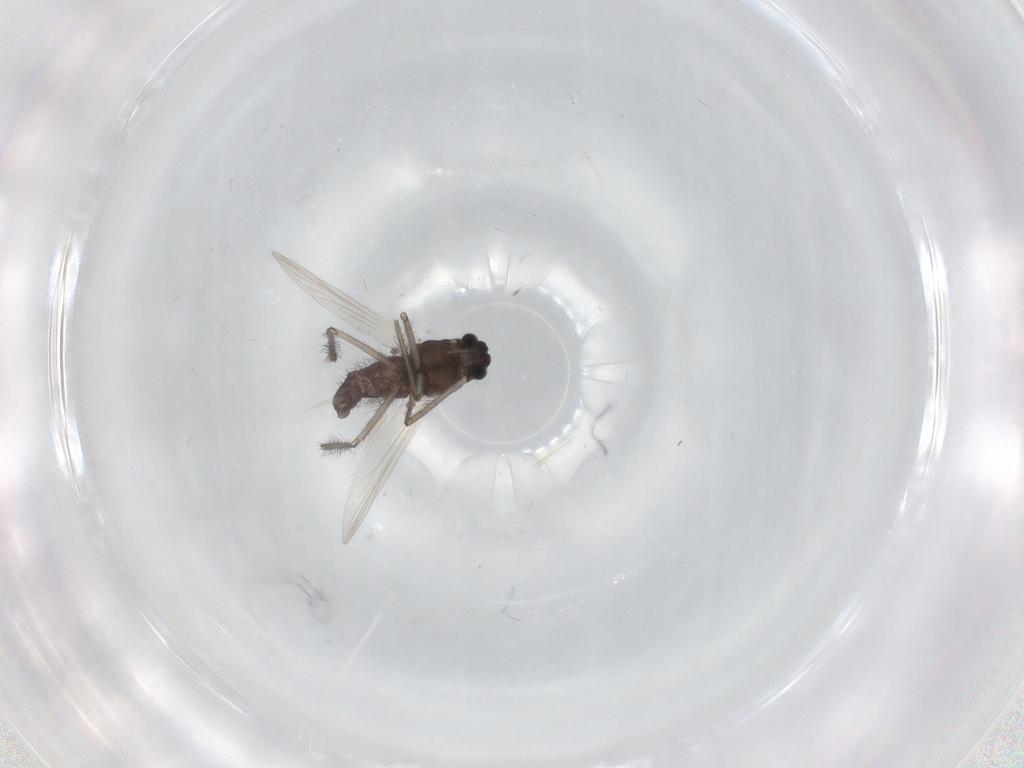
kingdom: Animalia
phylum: Arthropoda
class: Insecta
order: Diptera
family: Chironomidae
